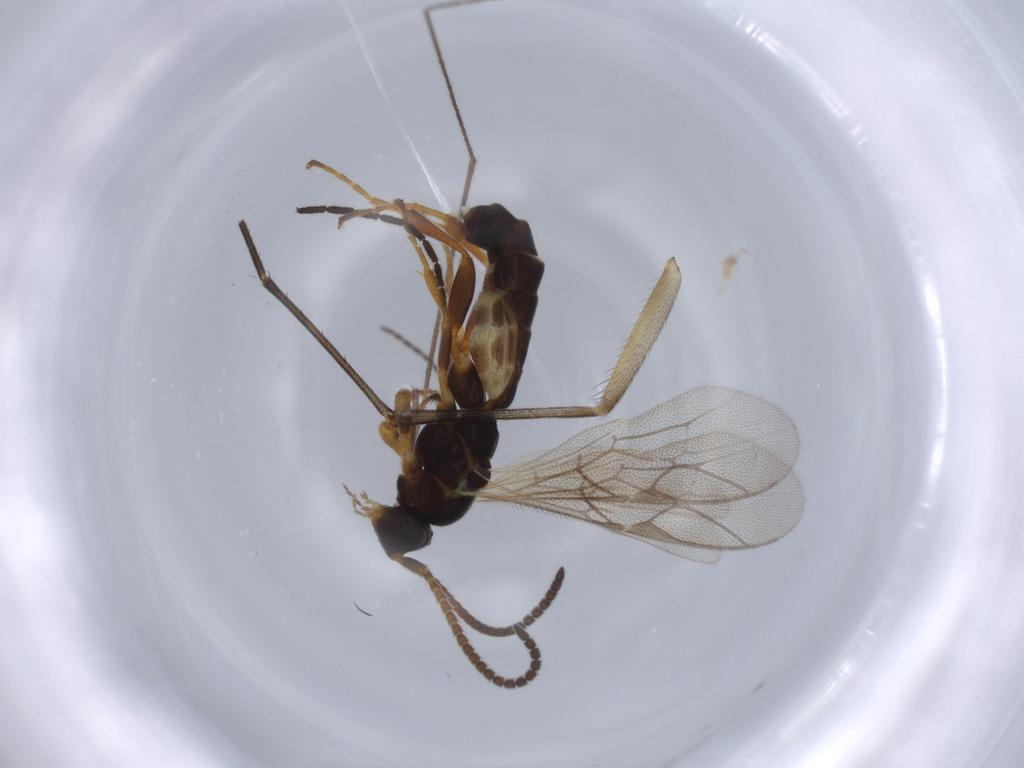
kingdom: Animalia
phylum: Arthropoda
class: Insecta
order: Hymenoptera
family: Ichneumonidae
